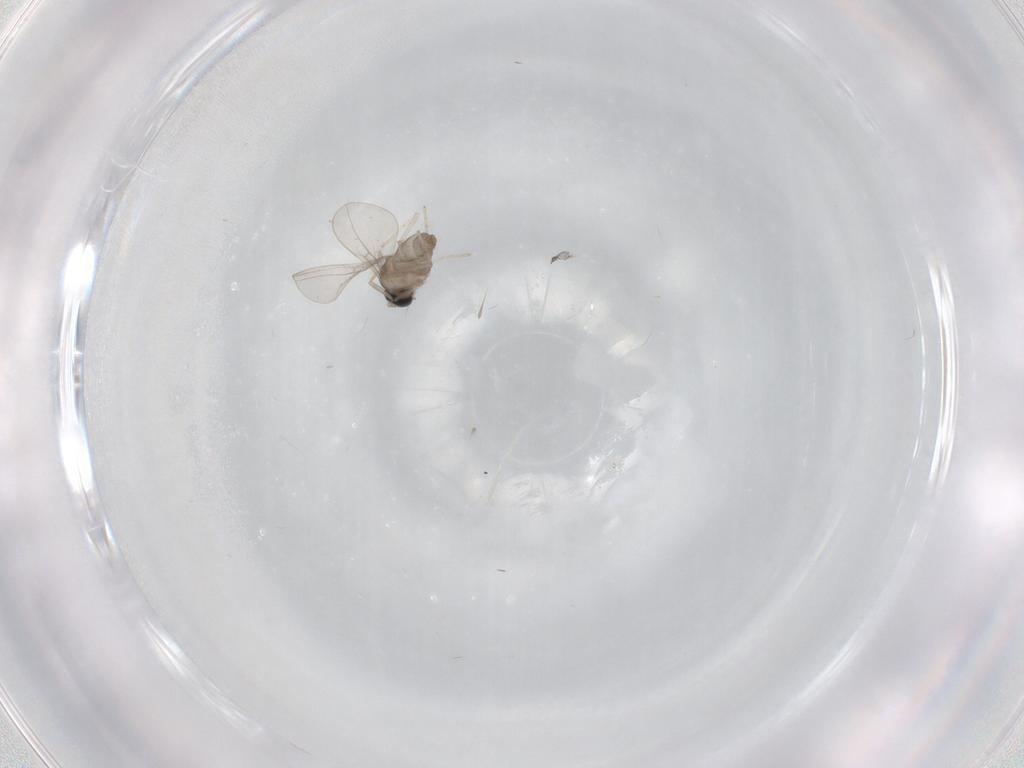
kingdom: Animalia
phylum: Arthropoda
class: Insecta
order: Diptera
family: Cecidomyiidae
